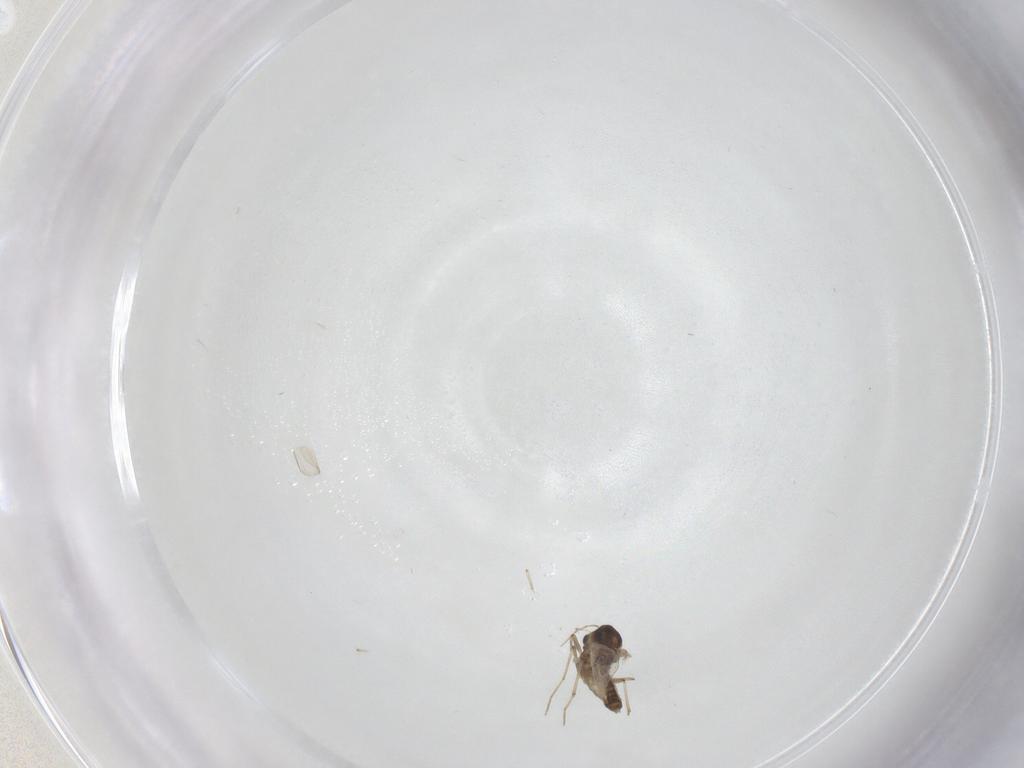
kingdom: Animalia
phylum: Arthropoda
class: Insecta
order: Diptera
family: Chironomidae
